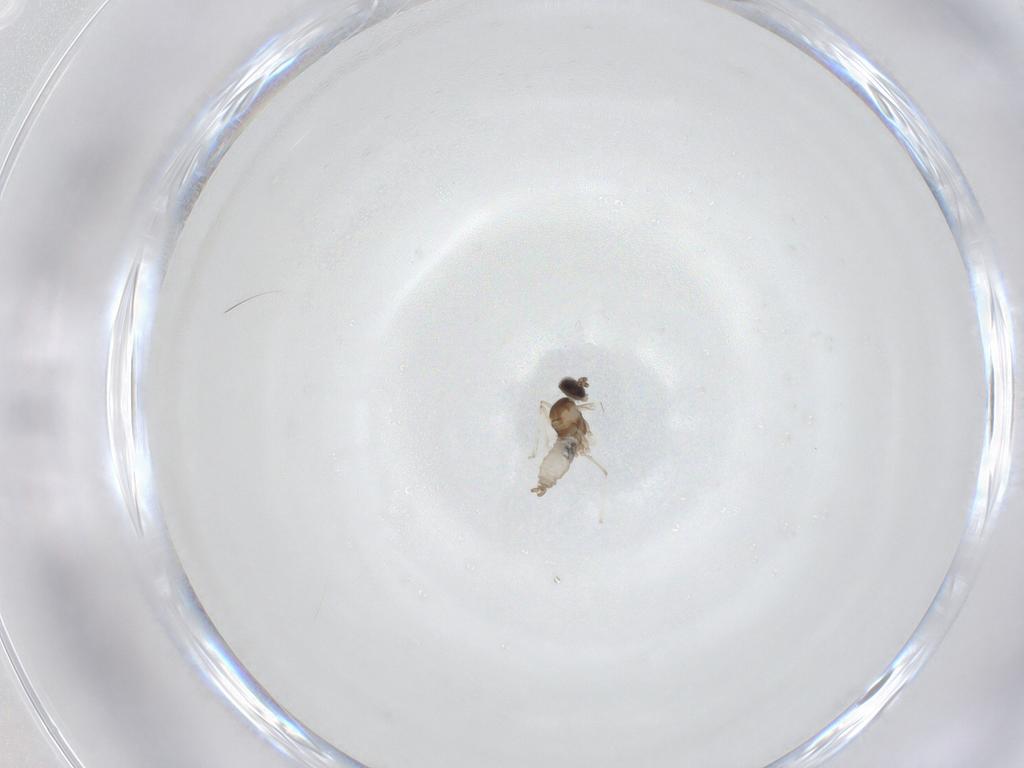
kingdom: Animalia
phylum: Arthropoda
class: Insecta
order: Diptera
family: Cecidomyiidae
